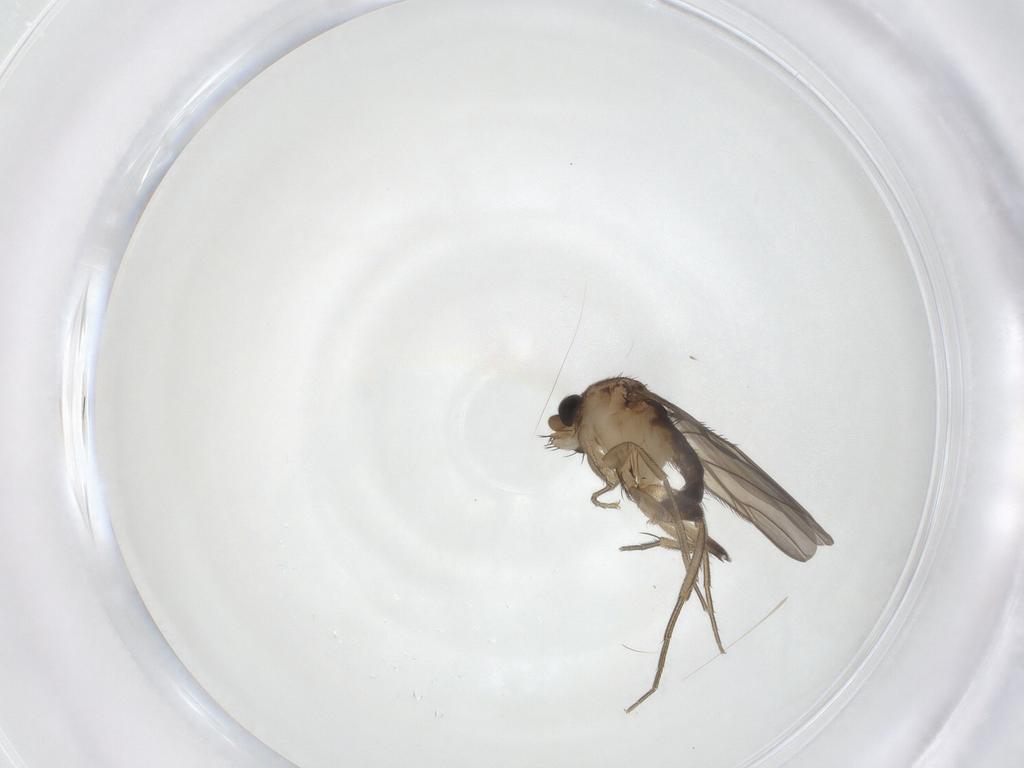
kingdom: Animalia
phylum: Arthropoda
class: Insecta
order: Diptera
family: Phoridae
